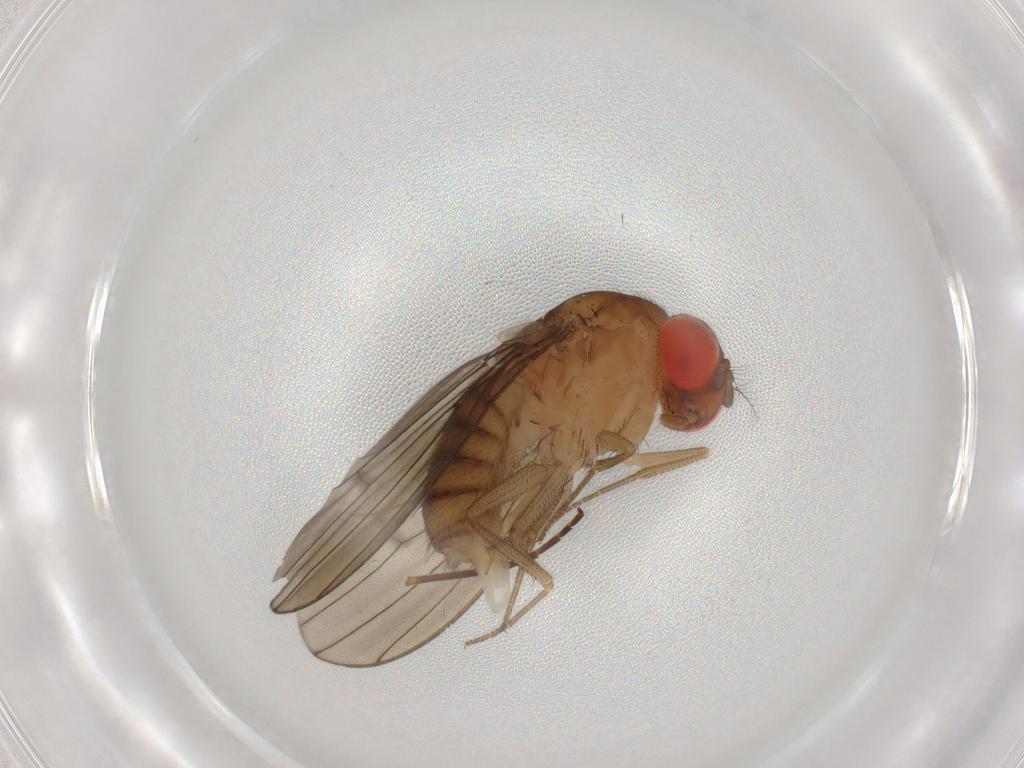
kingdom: Animalia
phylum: Arthropoda
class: Insecta
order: Diptera
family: Drosophilidae
